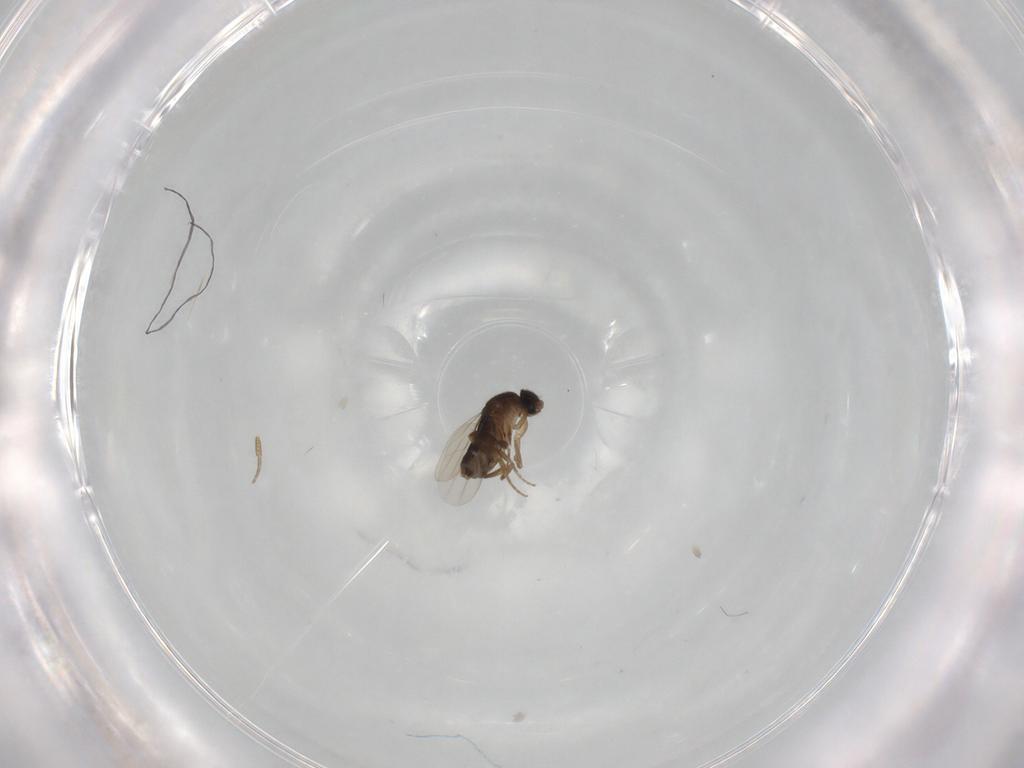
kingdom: Animalia
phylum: Arthropoda
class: Insecta
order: Diptera
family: Phoridae
